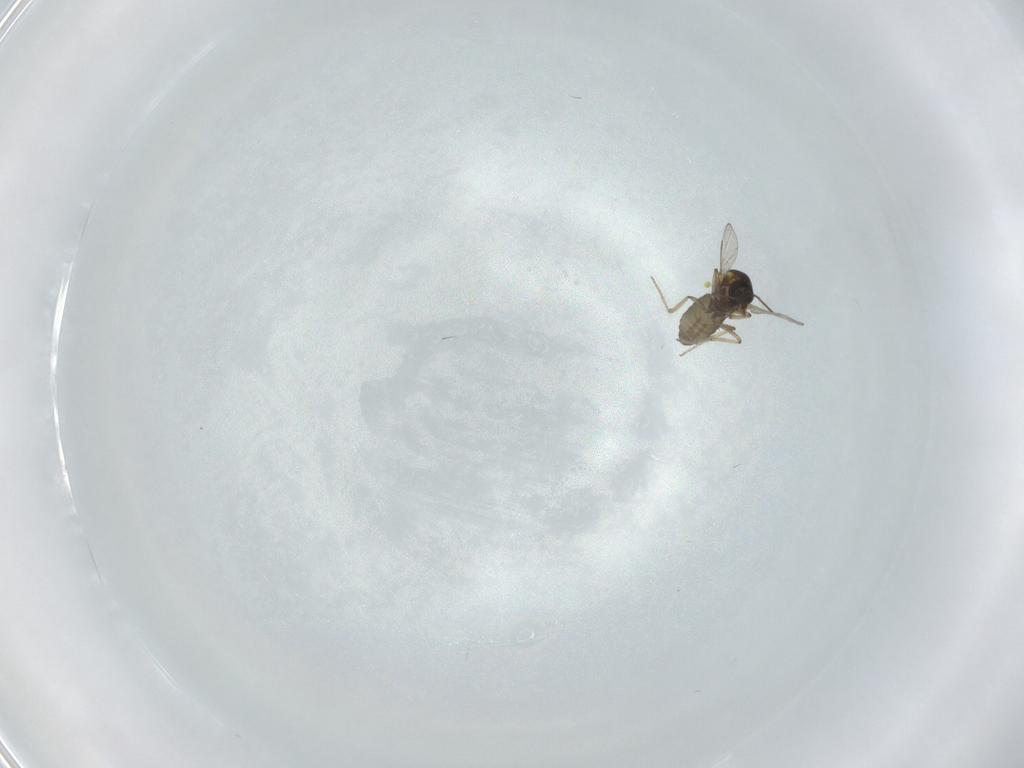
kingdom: Animalia
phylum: Arthropoda
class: Insecta
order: Diptera
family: Ceratopogonidae
